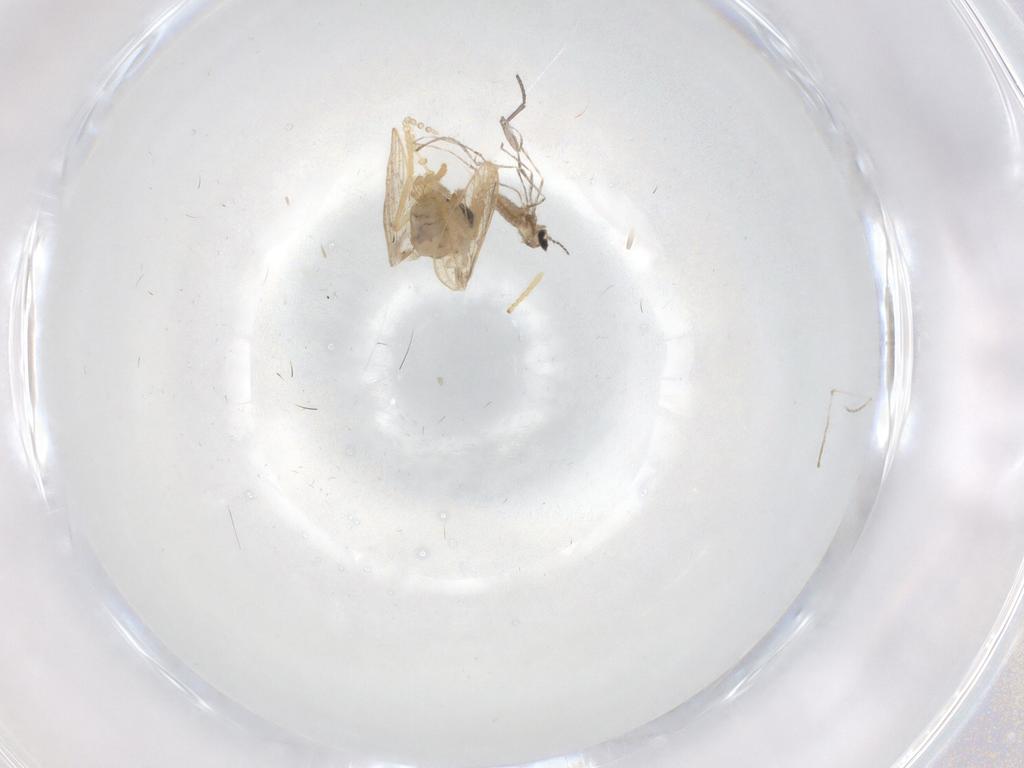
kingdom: Animalia
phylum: Arthropoda
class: Insecta
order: Diptera
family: Psychodidae
